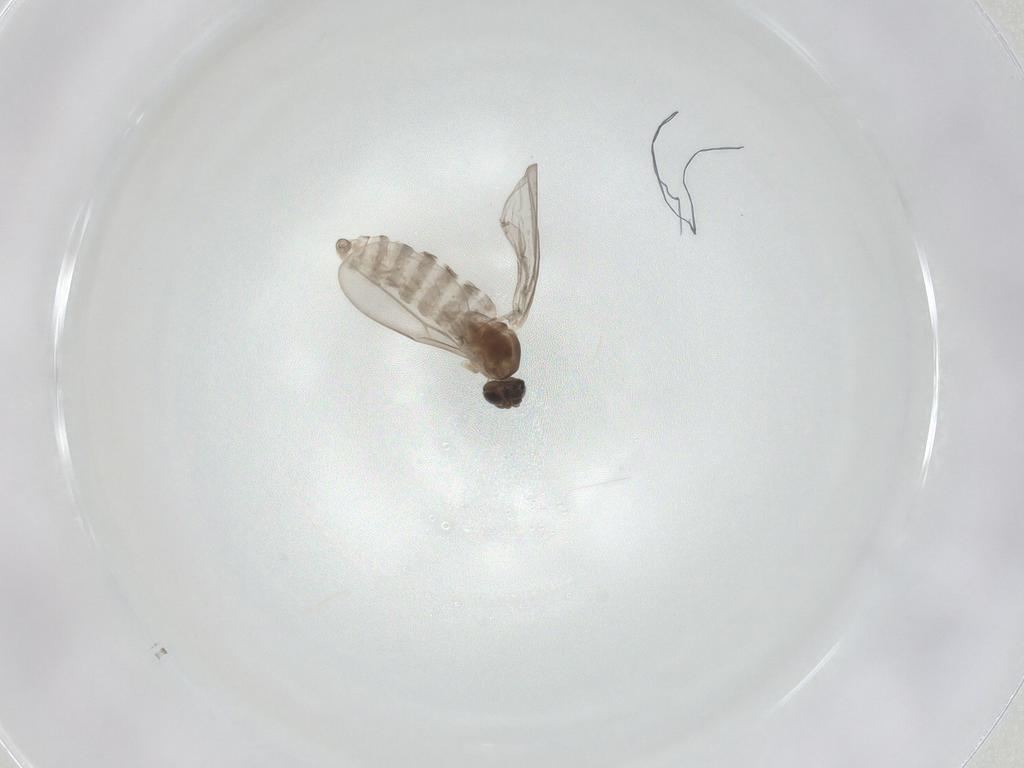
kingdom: Animalia
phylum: Arthropoda
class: Insecta
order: Diptera
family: Cecidomyiidae
